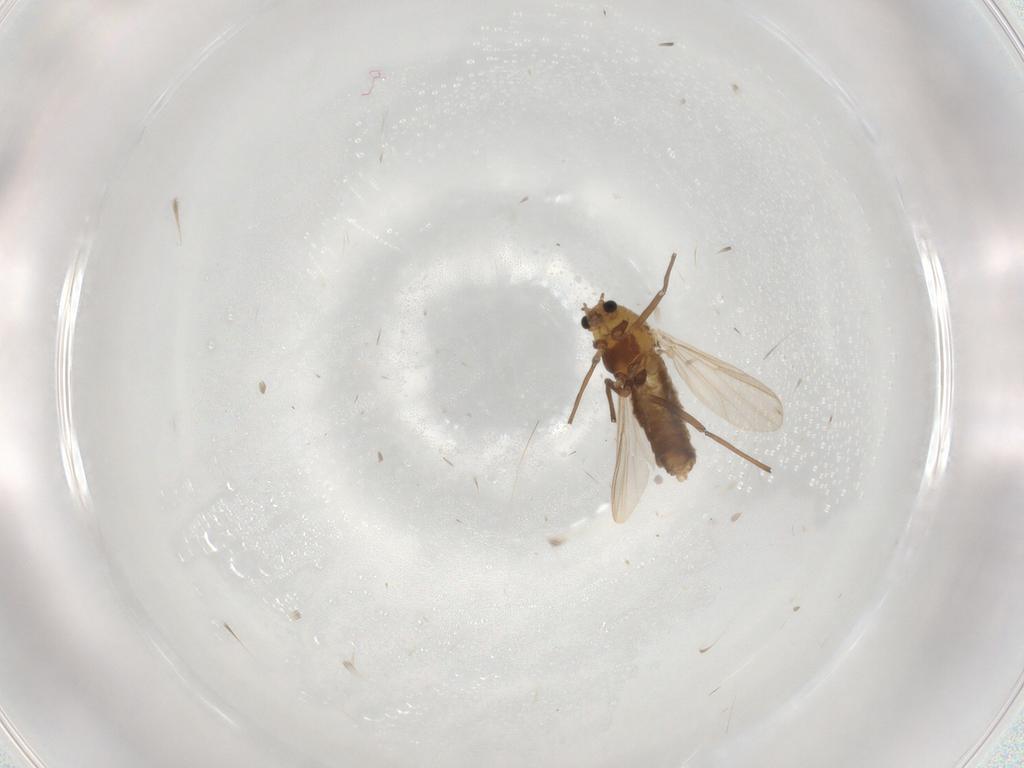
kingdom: Animalia
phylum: Arthropoda
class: Insecta
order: Diptera
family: Chironomidae
